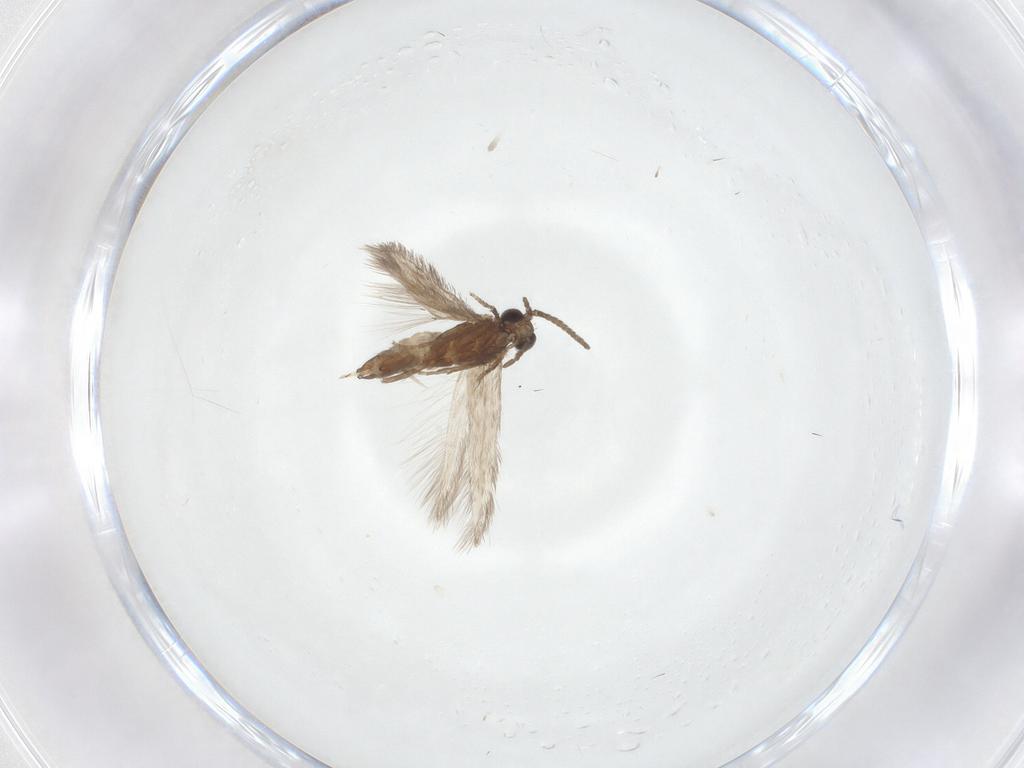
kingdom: Animalia
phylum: Arthropoda
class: Insecta
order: Trichoptera
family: Hydroptilidae
